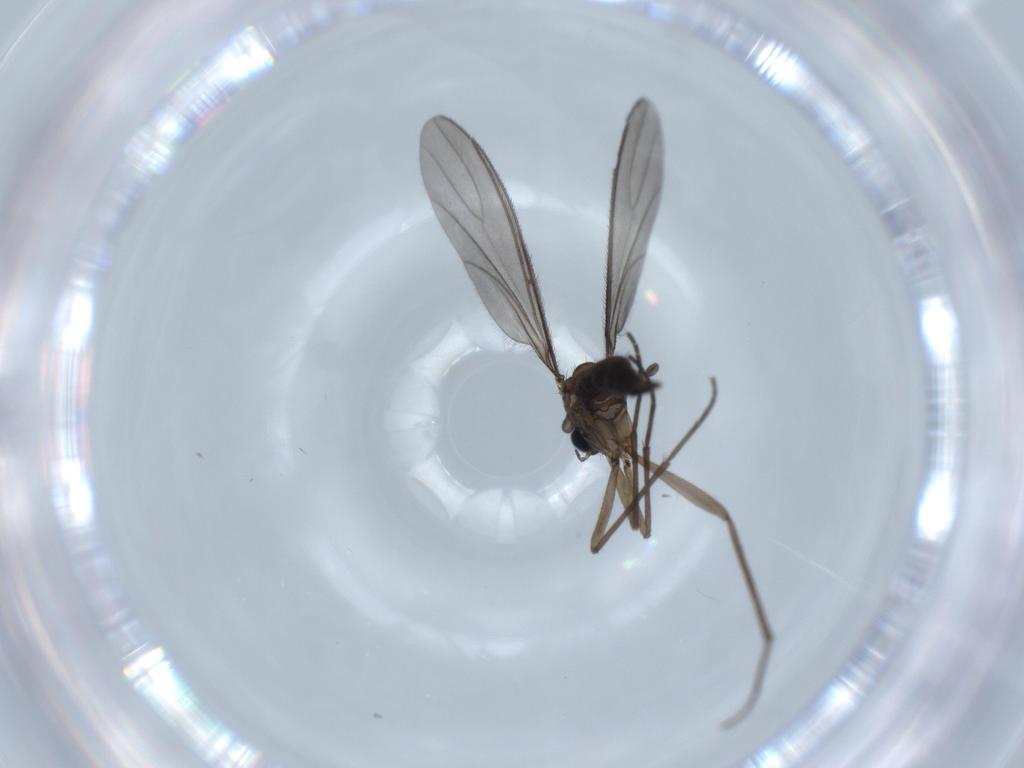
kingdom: Animalia
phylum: Arthropoda
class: Insecta
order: Diptera
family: Sciaridae
